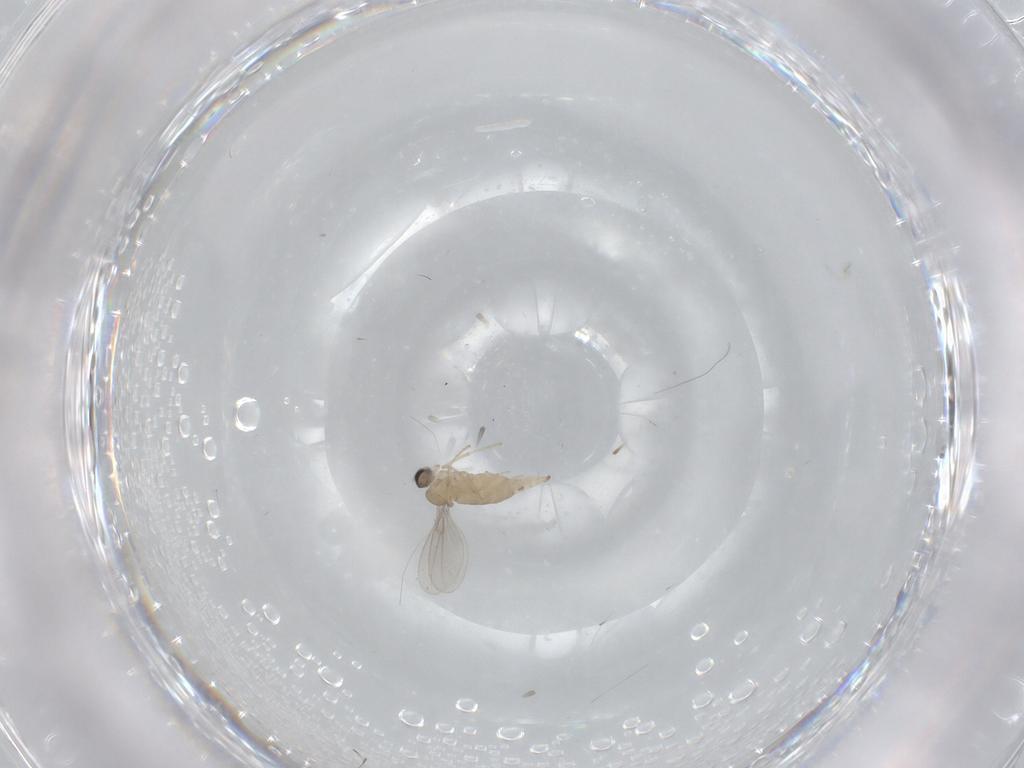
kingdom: Animalia
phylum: Arthropoda
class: Insecta
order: Diptera
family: Cecidomyiidae
